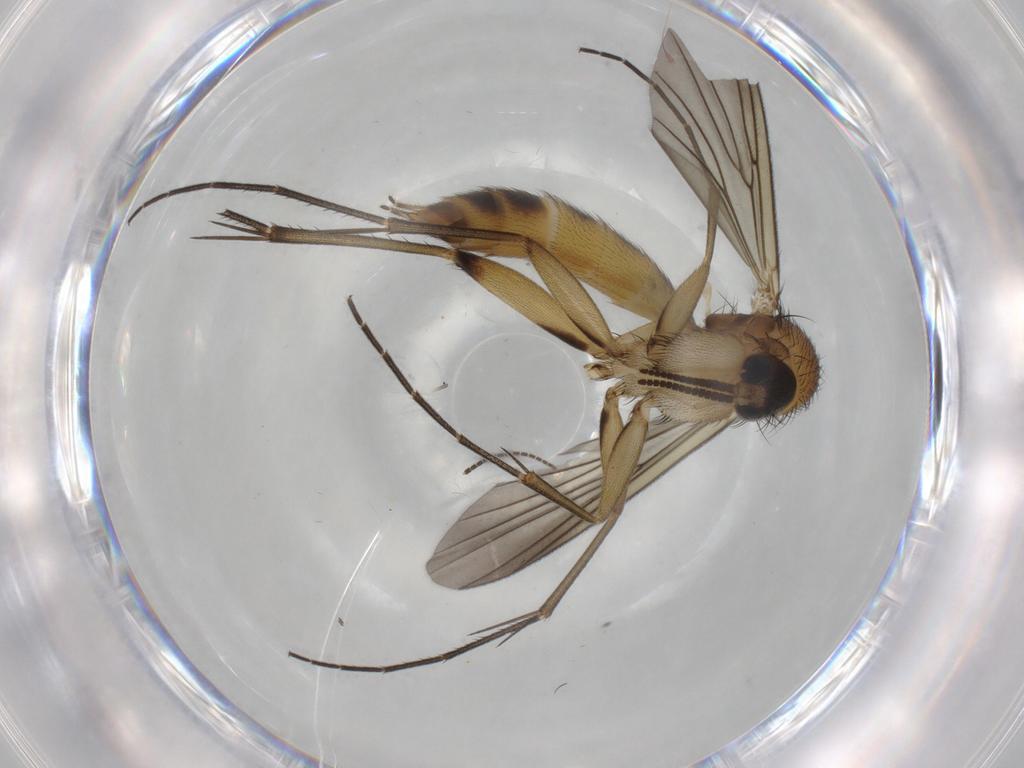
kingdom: Animalia
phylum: Arthropoda
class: Insecta
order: Diptera
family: Mycetophilidae
